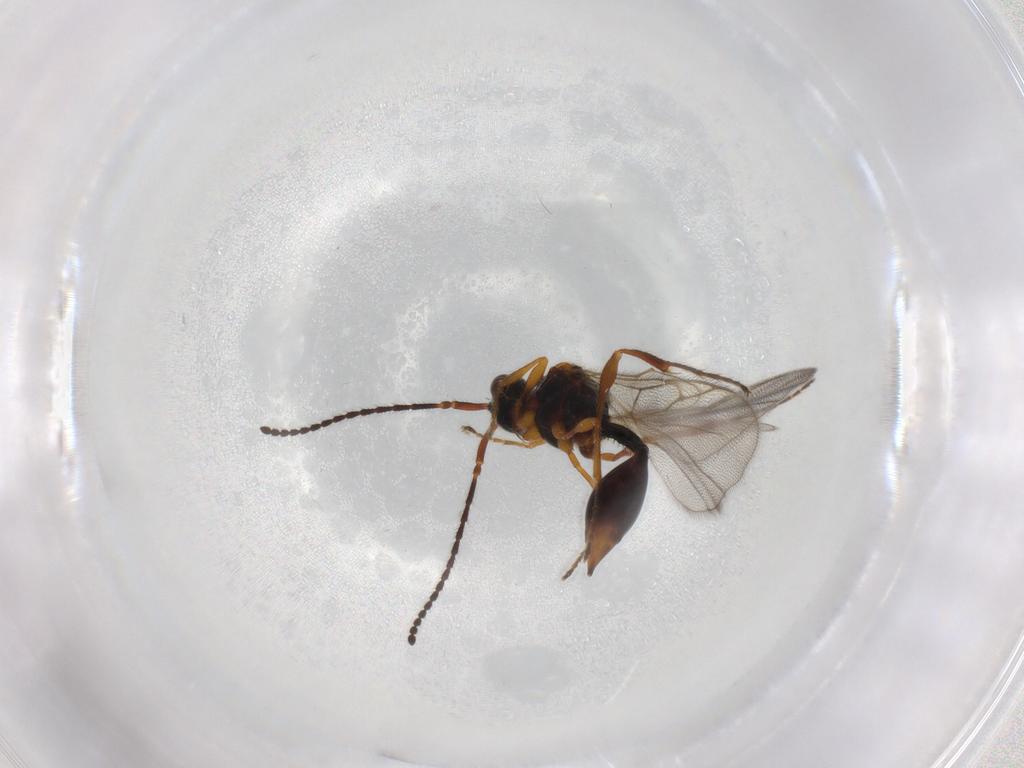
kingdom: Animalia
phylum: Arthropoda
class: Insecta
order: Hymenoptera
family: Diapriidae
